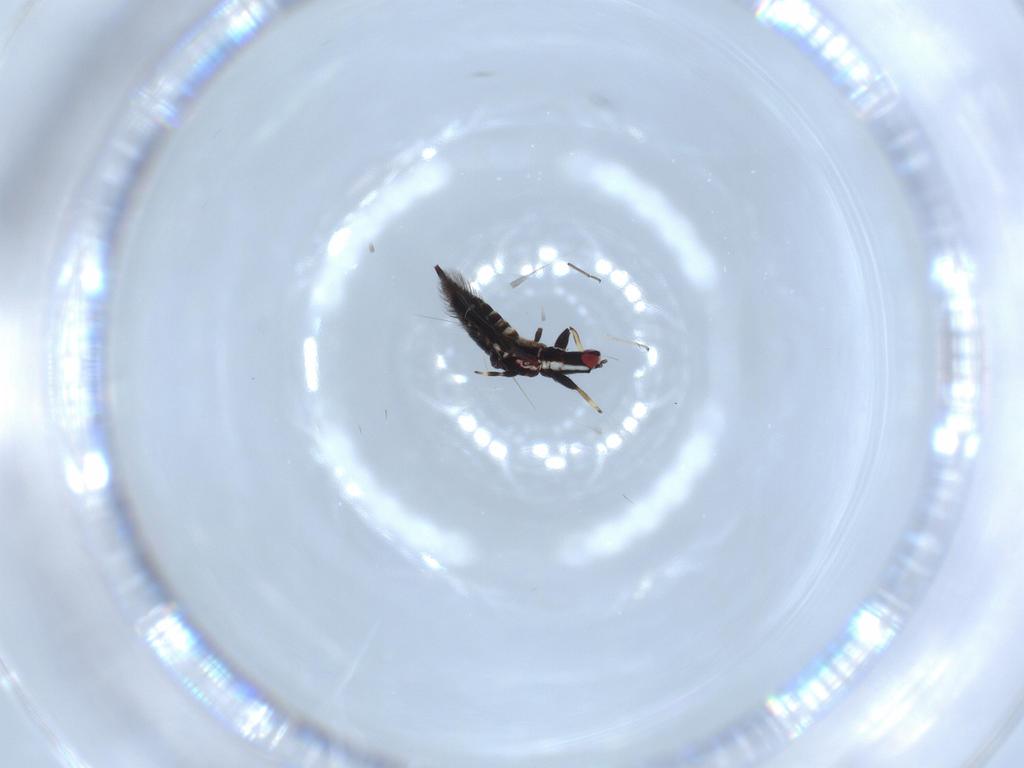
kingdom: Animalia
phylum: Arthropoda
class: Insecta
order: Thysanoptera
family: Phlaeothripidae
